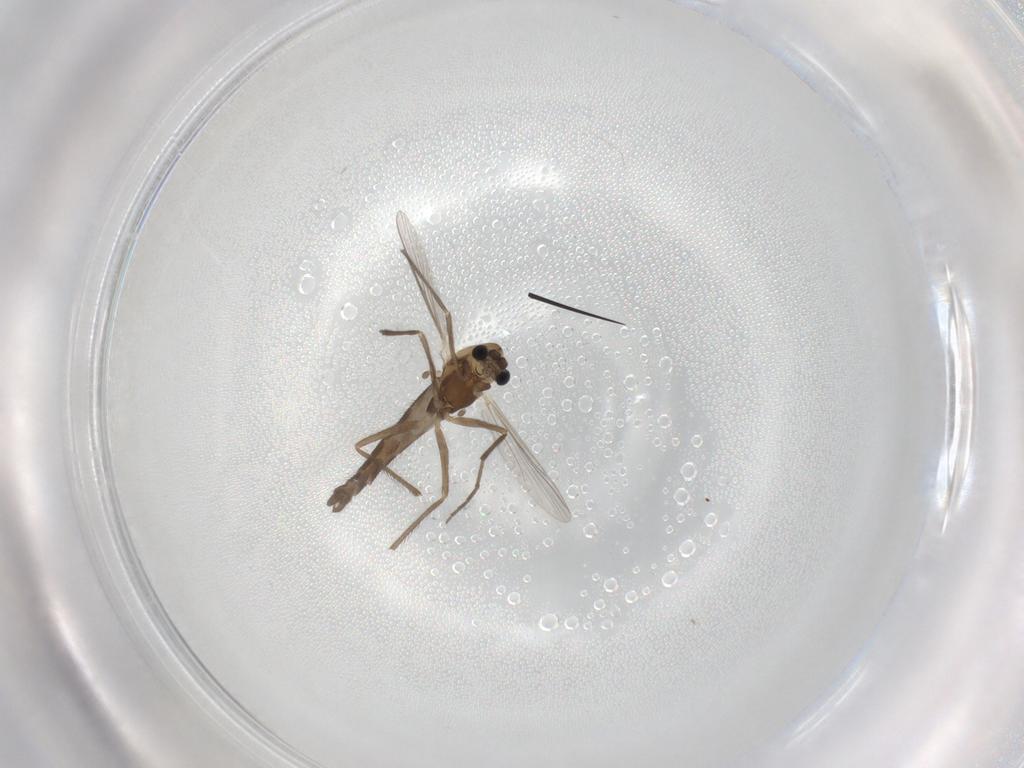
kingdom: Animalia
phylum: Arthropoda
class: Insecta
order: Diptera
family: Chironomidae
